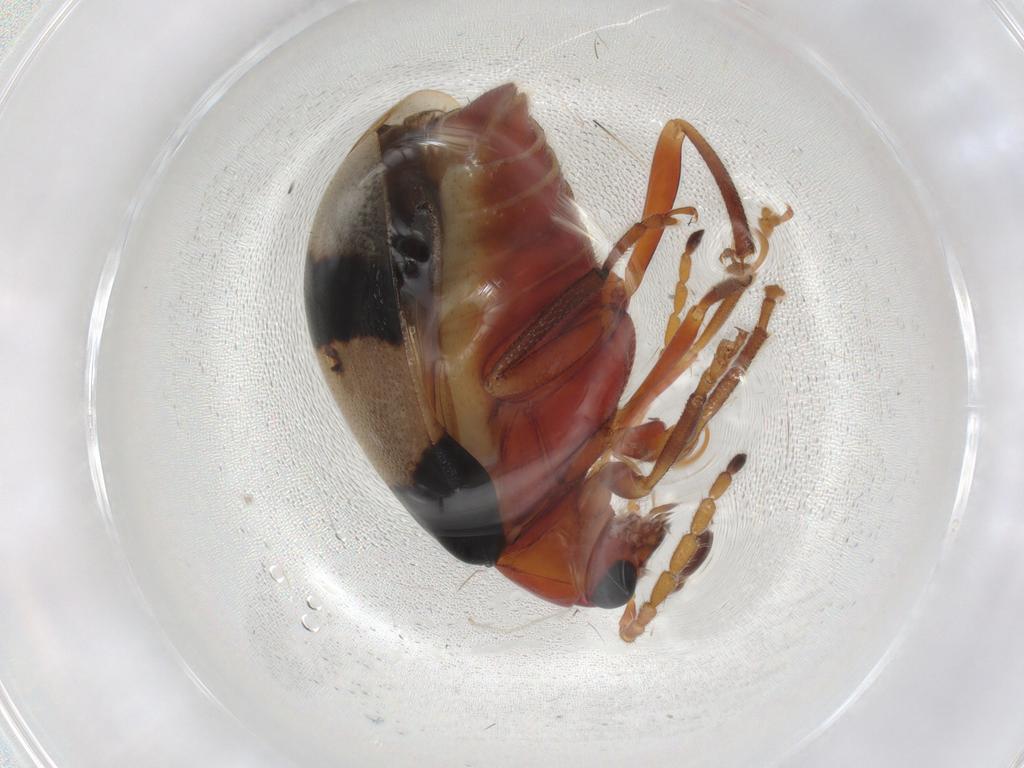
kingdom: Animalia
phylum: Arthropoda
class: Insecta
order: Coleoptera
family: Chrysomelidae
